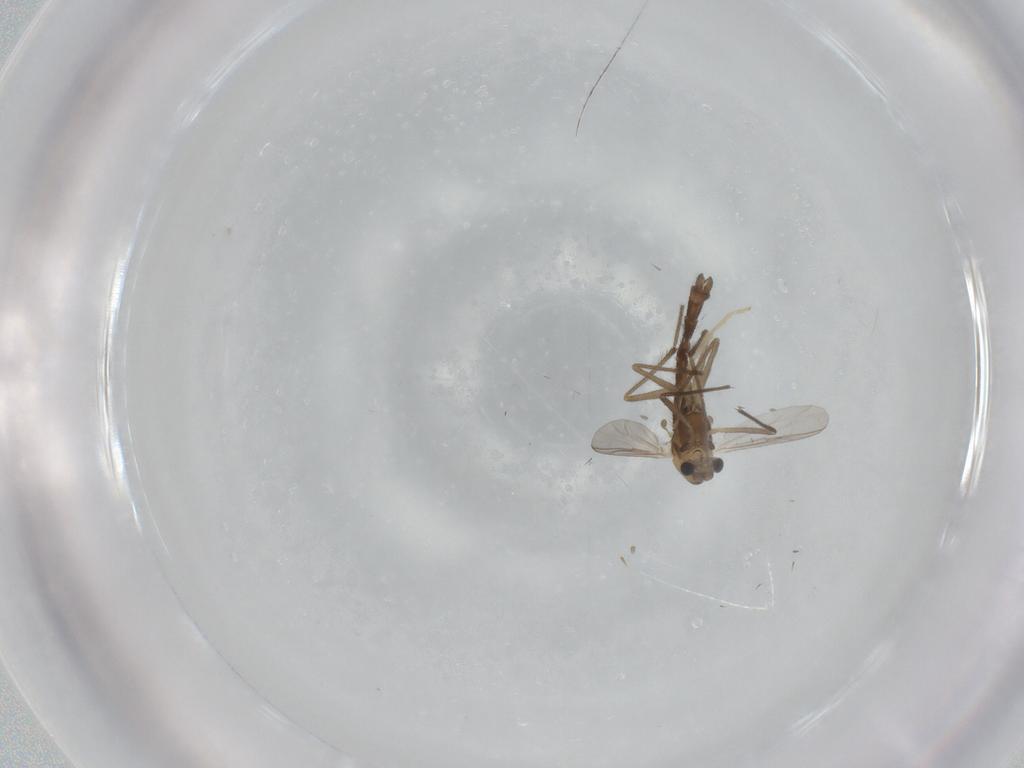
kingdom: Animalia
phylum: Arthropoda
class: Insecta
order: Diptera
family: Chironomidae
